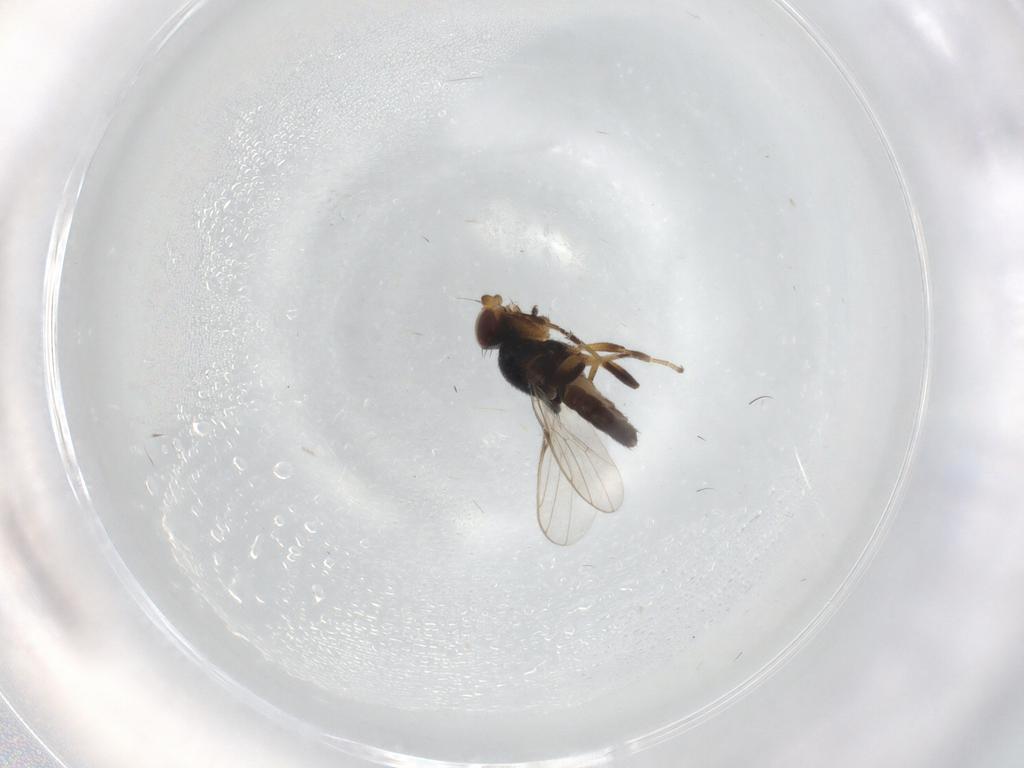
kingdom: Animalia
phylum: Arthropoda
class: Insecta
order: Diptera
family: Chloropidae
